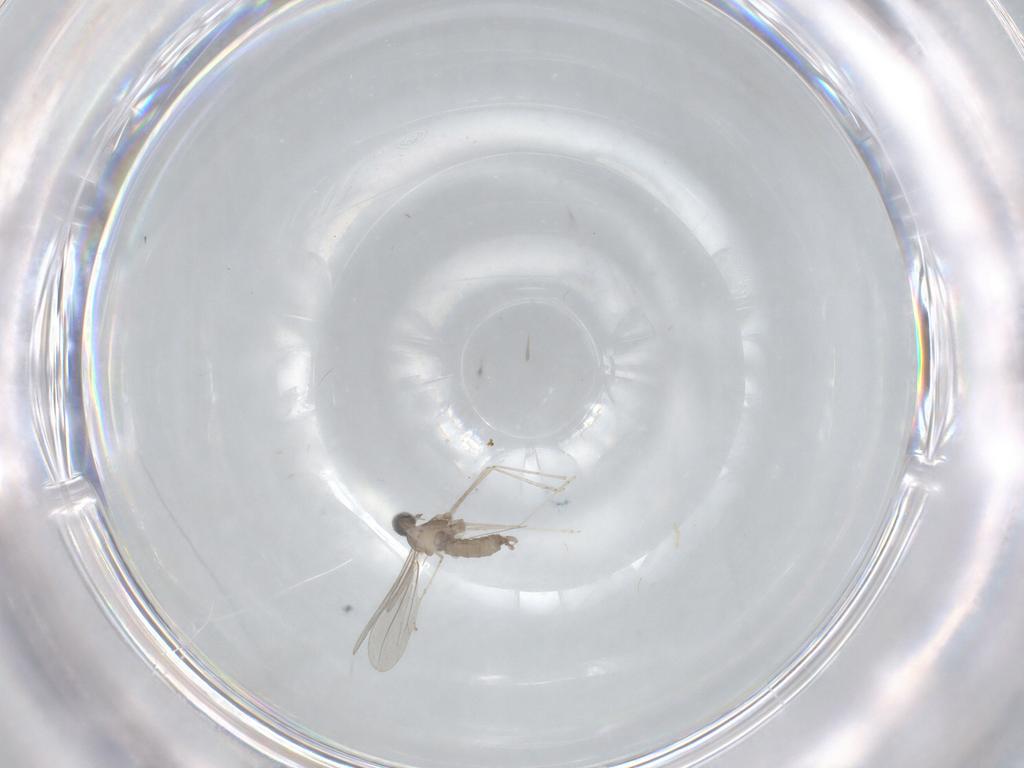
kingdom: Animalia
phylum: Arthropoda
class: Insecta
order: Diptera
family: Cecidomyiidae
